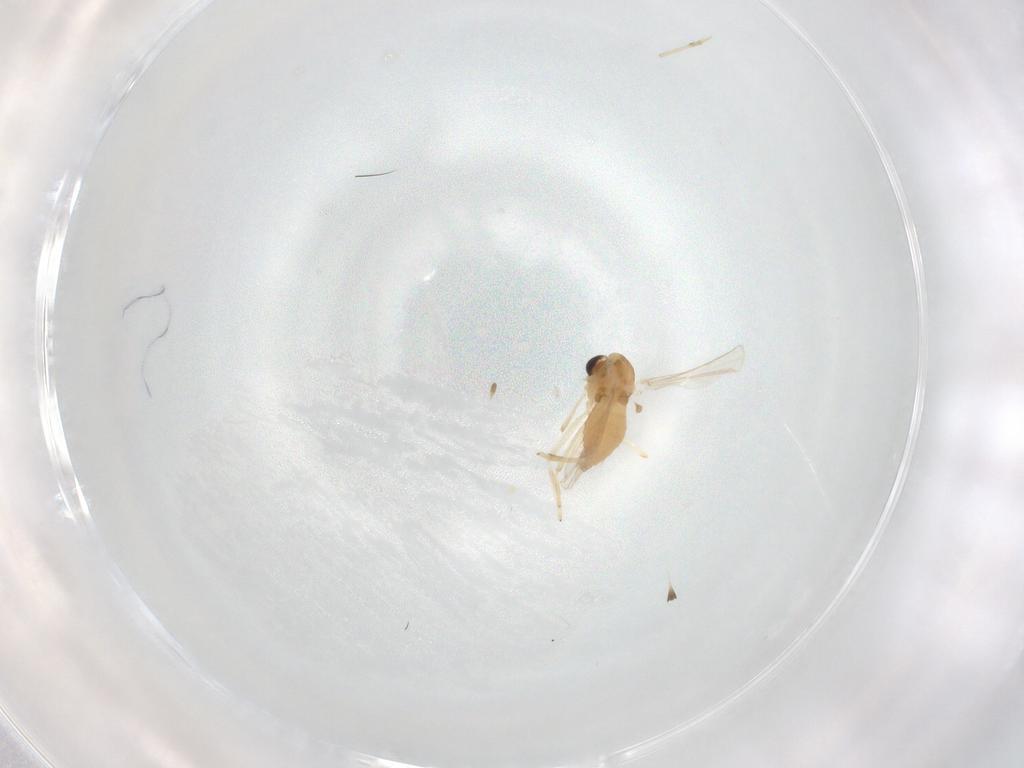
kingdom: Animalia
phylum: Arthropoda
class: Insecta
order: Diptera
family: Chironomidae
